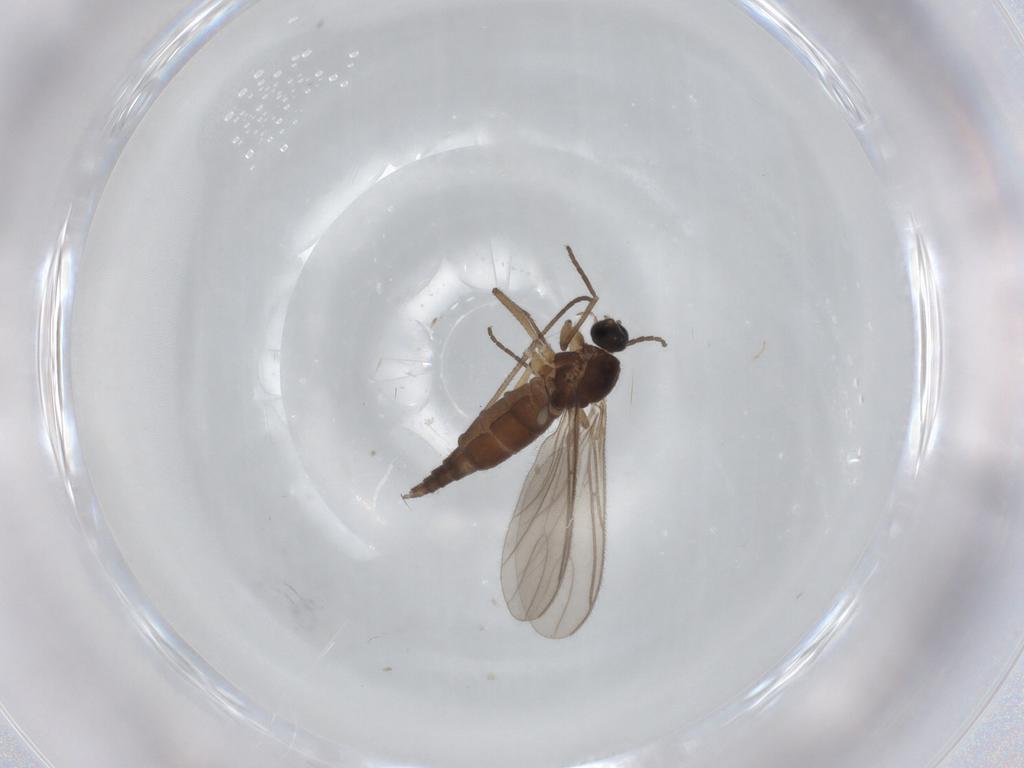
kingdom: Animalia
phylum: Arthropoda
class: Insecta
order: Diptera
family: Sciaridae
